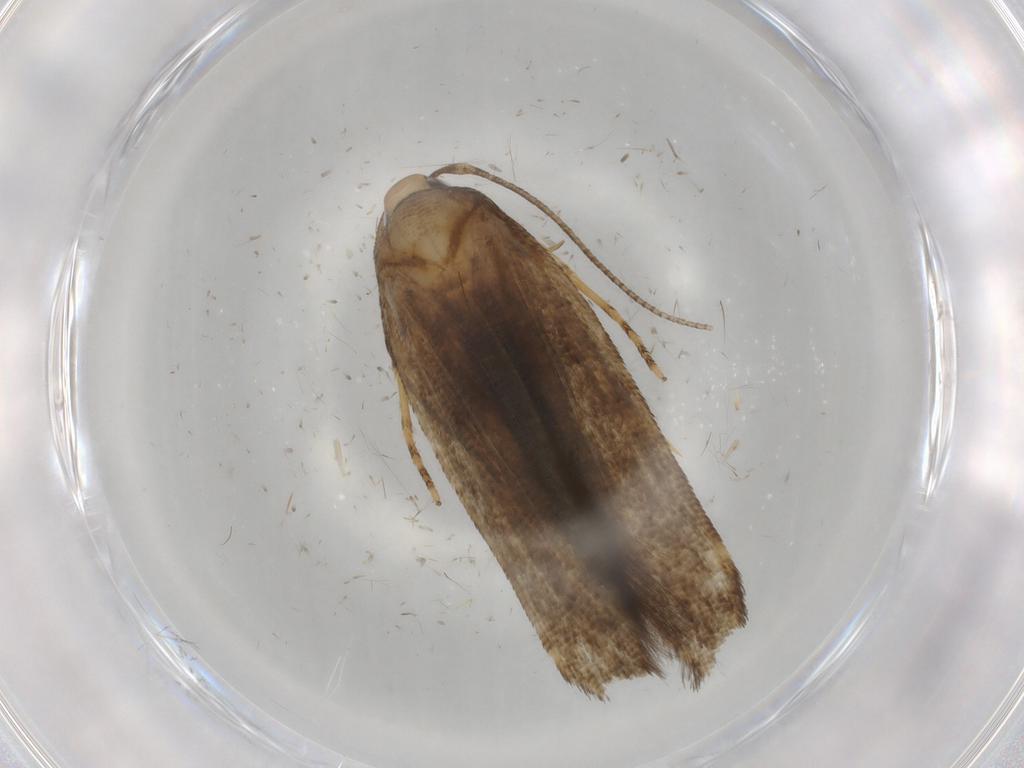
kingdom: Animalia
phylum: Arthropoda
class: Insecta
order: Lepidoptera
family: Cosmopterigidae
